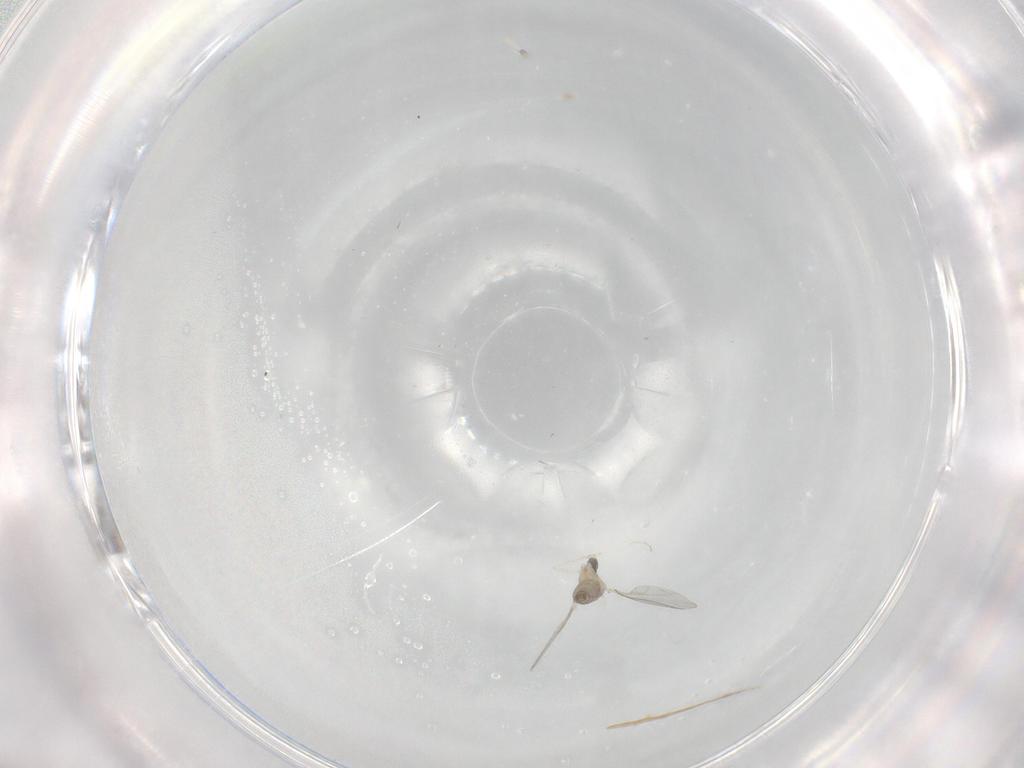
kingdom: Animalia
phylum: Arthropoda
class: Insecta
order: Diptera
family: Cecidomyiidae
